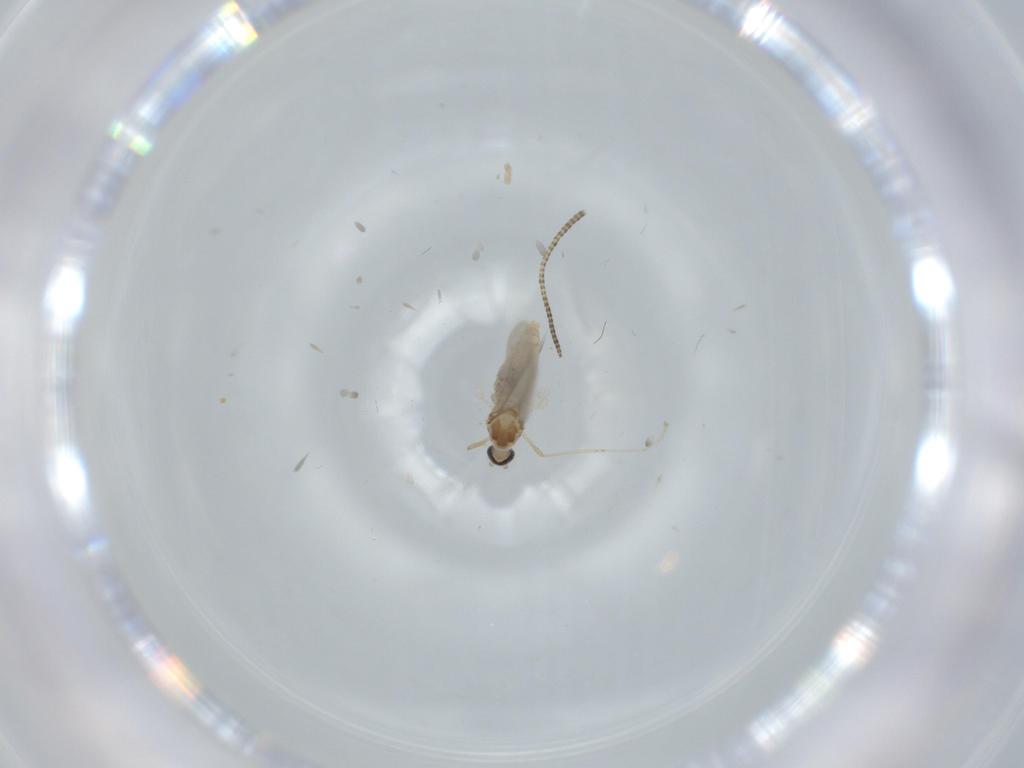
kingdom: Animalia
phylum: Arthropoda
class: Insecta
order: Diptera
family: Cecidomyiidae
